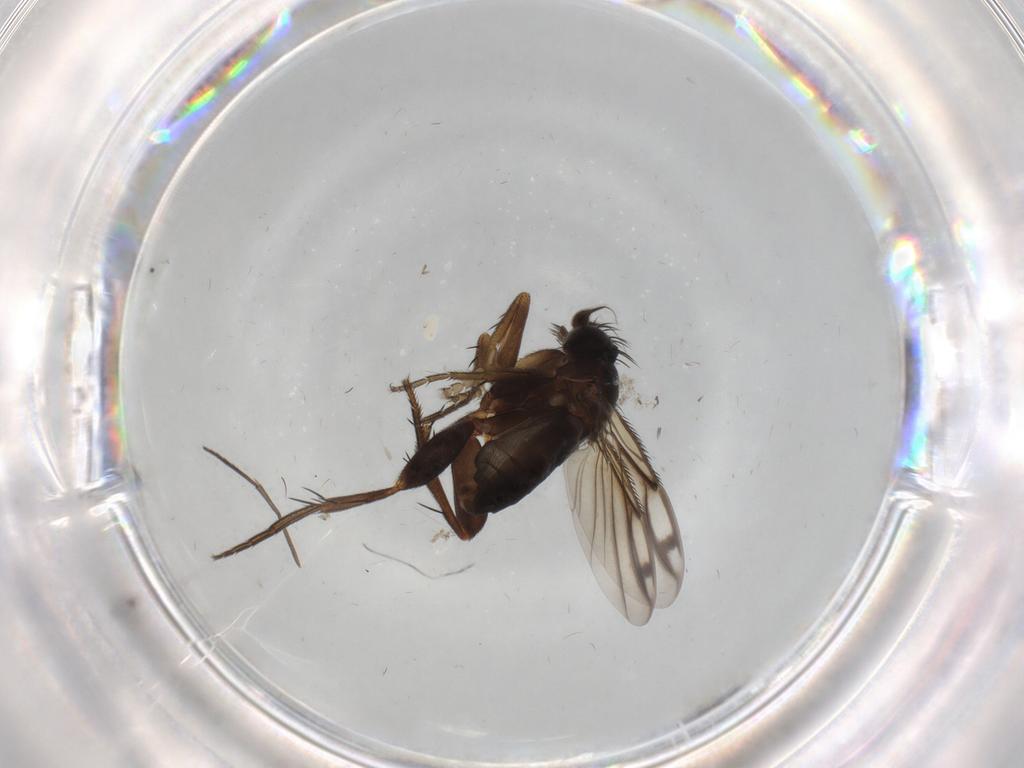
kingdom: Animalia
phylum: Arthropoda
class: Insecta
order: Diptera
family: Phoridae
